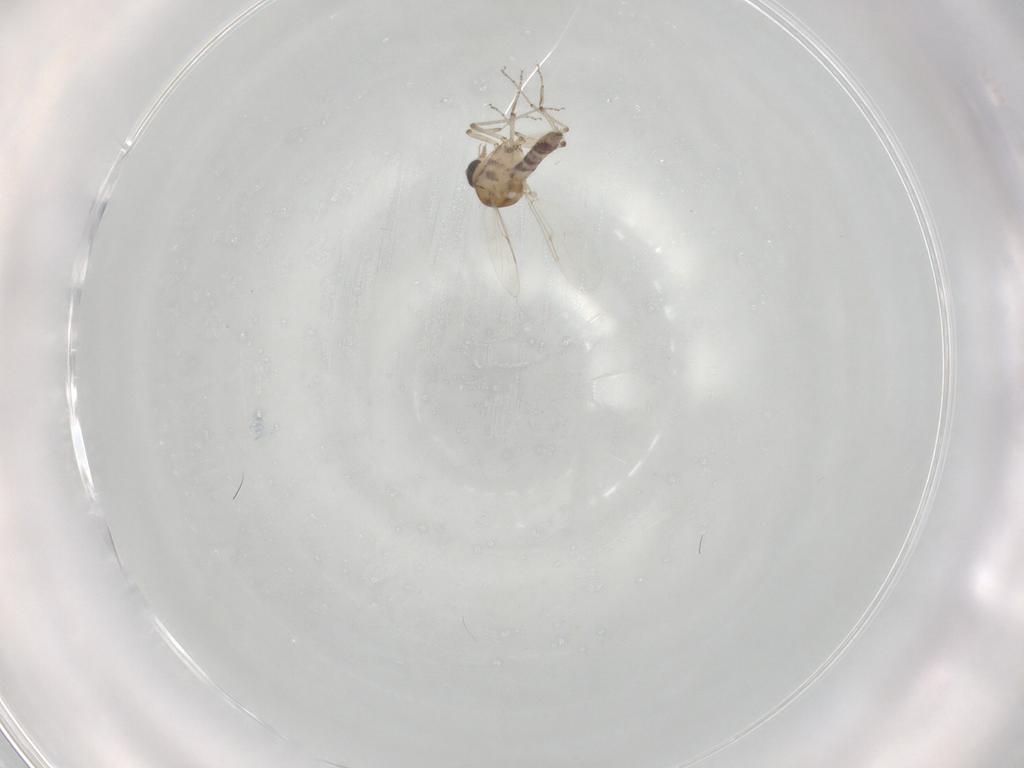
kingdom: Animalia
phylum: Arthropoda
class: Insecta
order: Diptera
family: Ceratopogonidae
